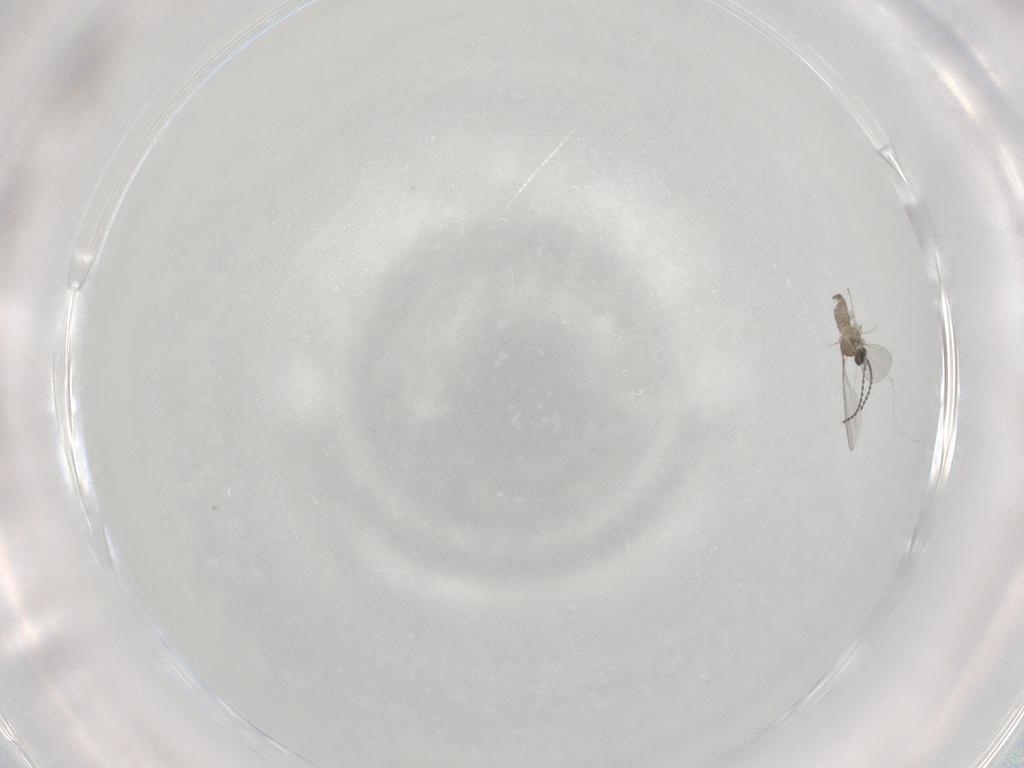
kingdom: Animalia
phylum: Arthropoda
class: Insecta
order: Diptera
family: Cecidomyiidae
